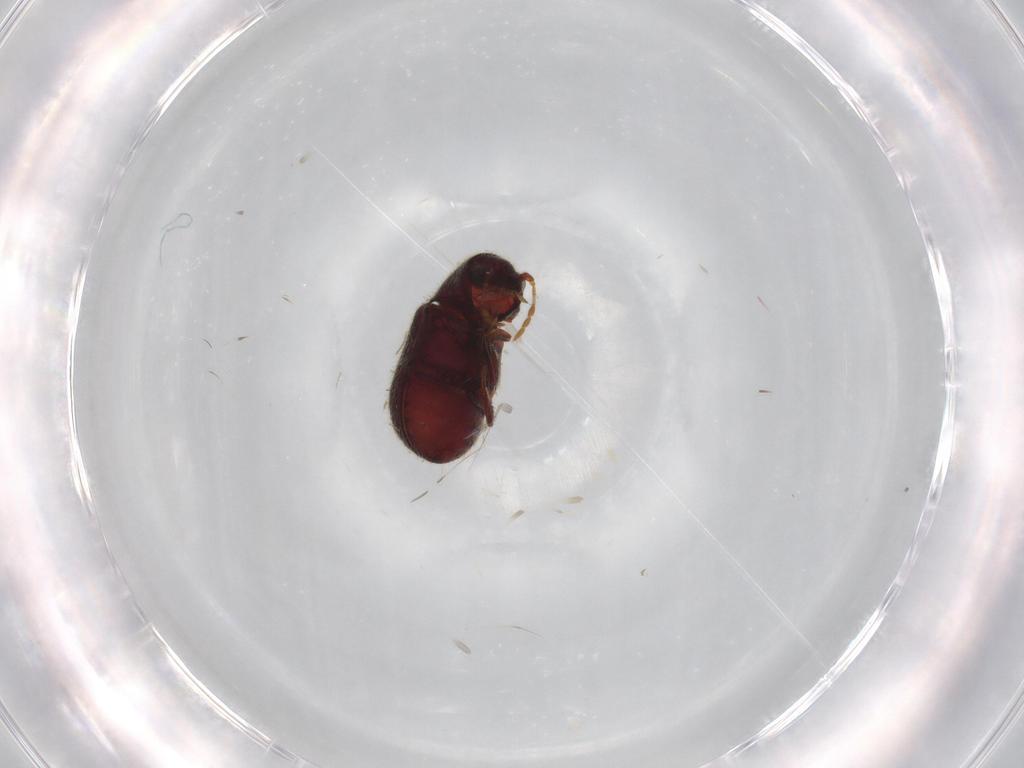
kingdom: Animalia
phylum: Arthropoda
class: Insecta
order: Coleoptera
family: Ptinidae
